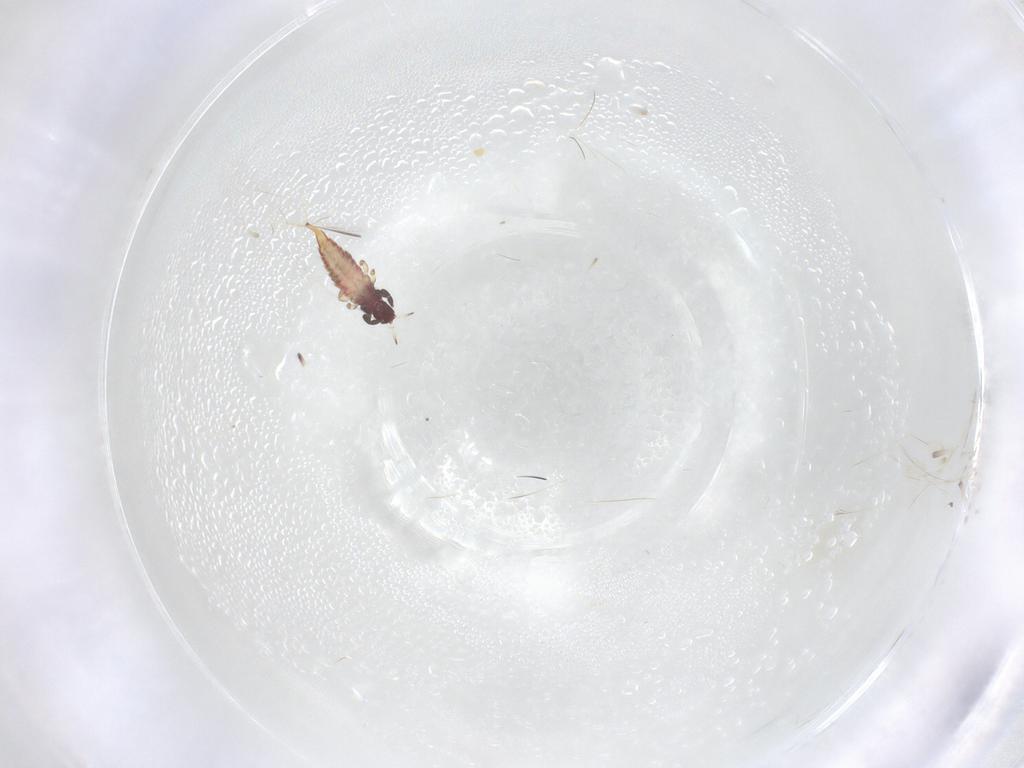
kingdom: Animalia
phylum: Arthropoda
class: Insecta
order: Thysanoptera
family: Phlaeothripidae
